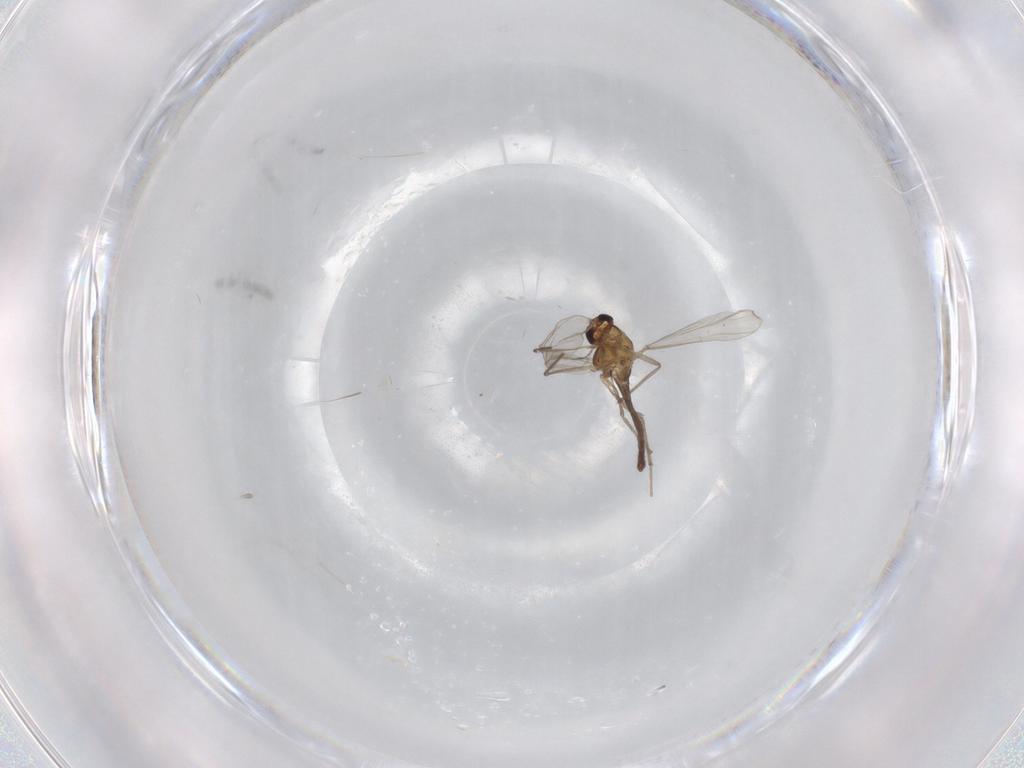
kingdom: Animalia
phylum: Arthropoda
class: Insecta
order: Diptera
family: Chironomidae
